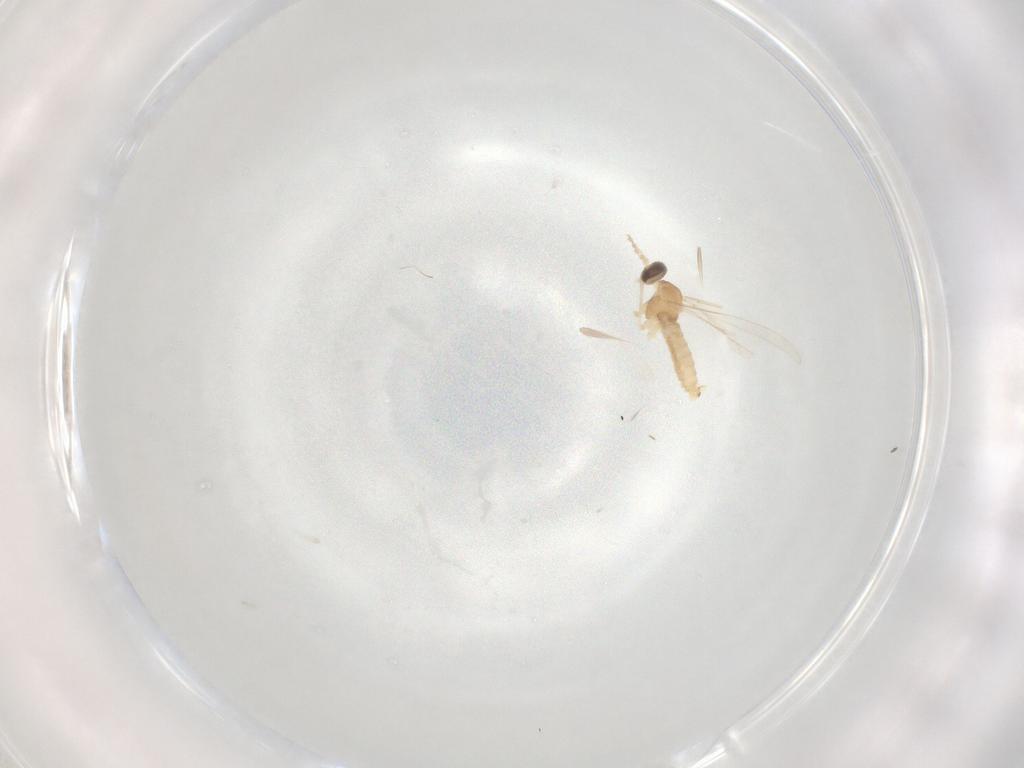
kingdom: Animalia
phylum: Arthropoda
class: Insecta
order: Diptera
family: Cecidomyiidae
